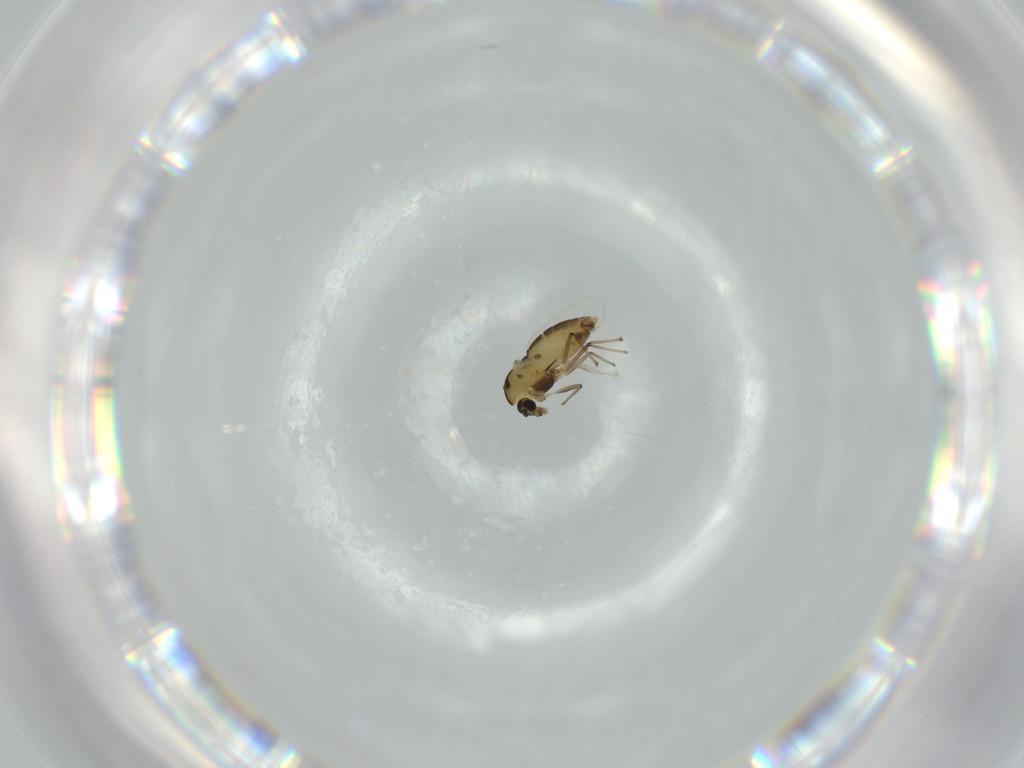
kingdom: Animalia
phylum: Arthropoda
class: Insecta
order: Diptera
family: Chironomidae
